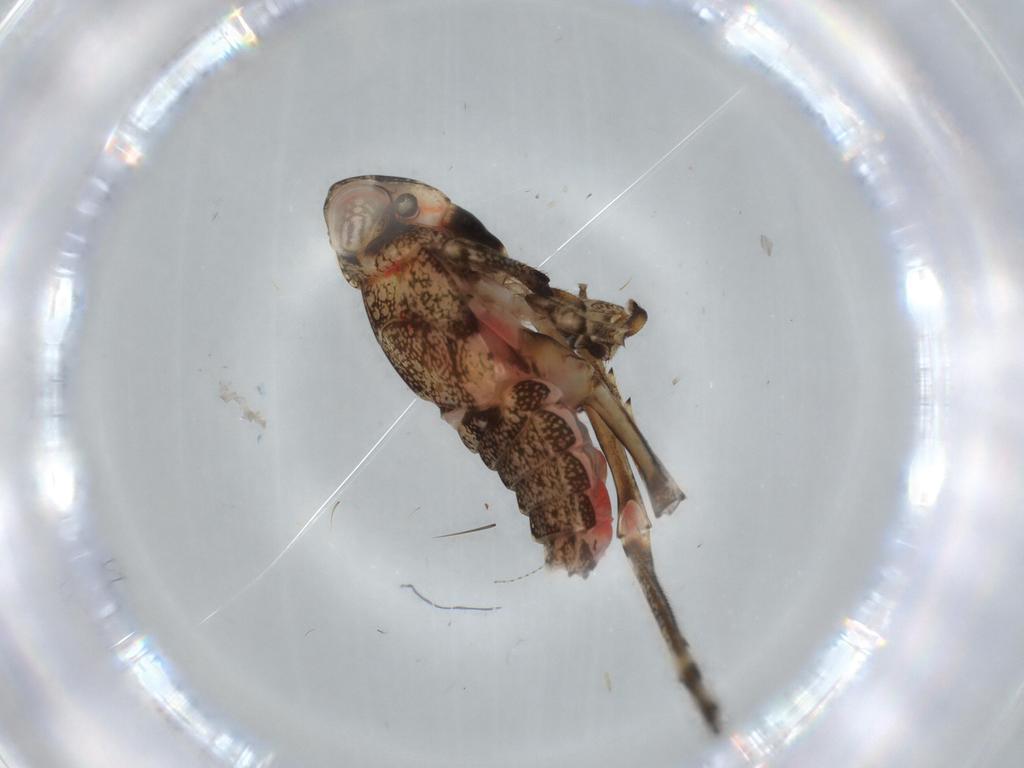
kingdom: Animalia
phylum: Arthropoda
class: Insecta
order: Hemiptera
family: Issidae
